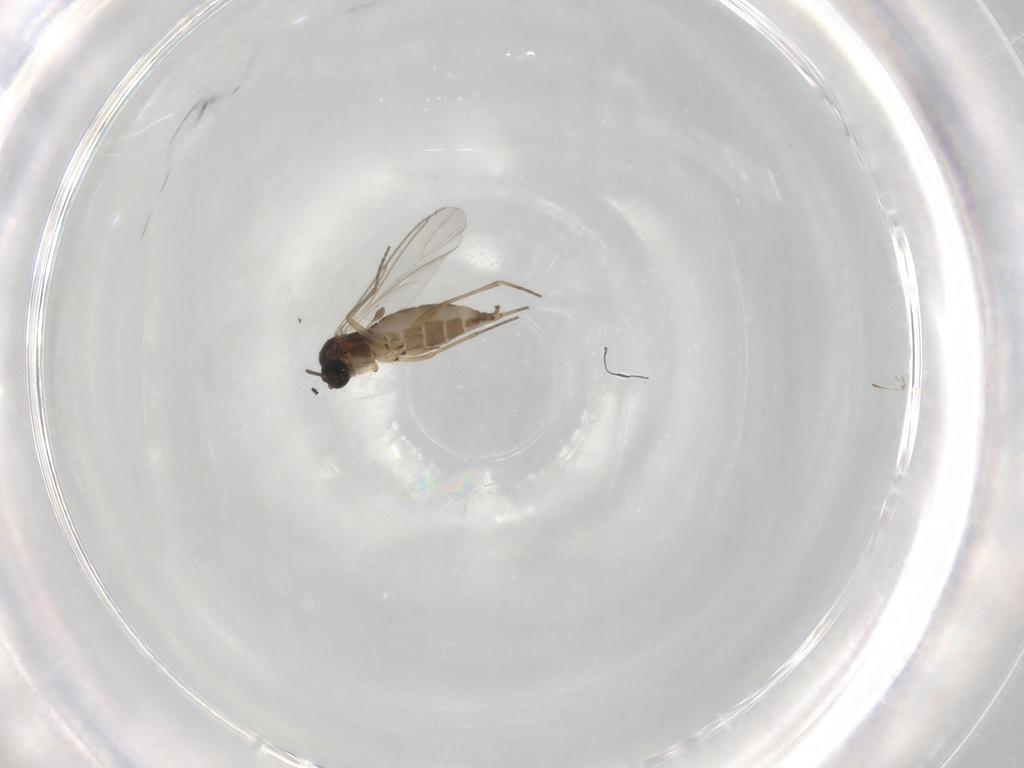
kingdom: Animalia
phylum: Arthropoda
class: Insecta
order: Diptera
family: Sciaridae
